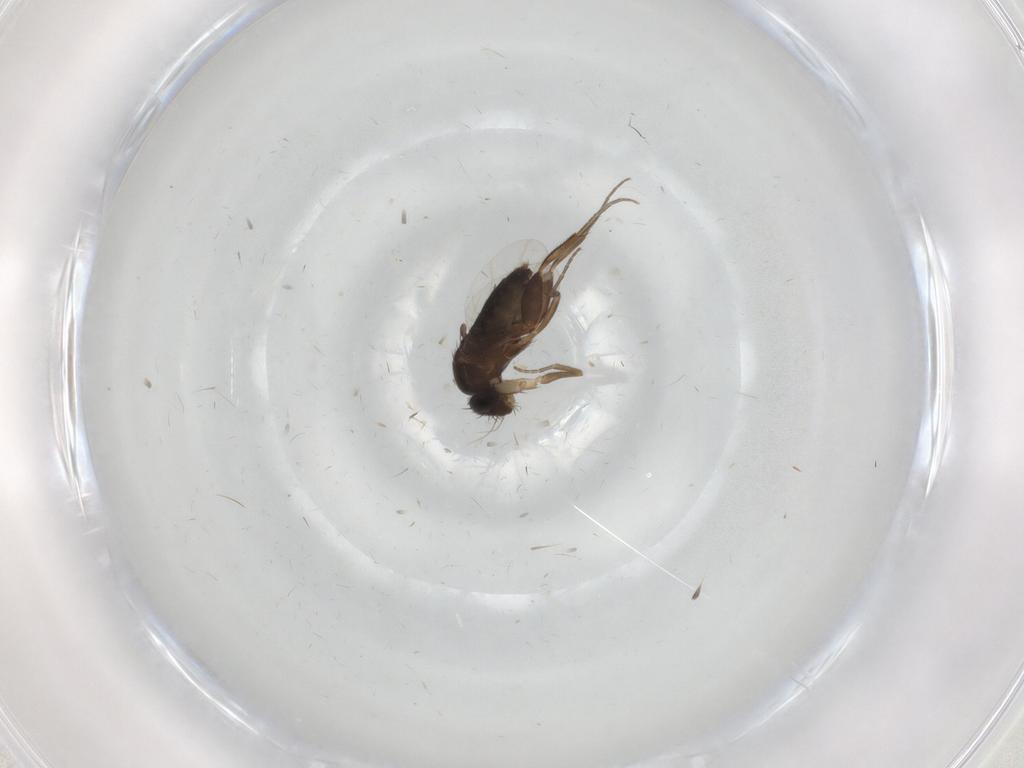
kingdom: Animalia
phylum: Arthropoda
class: Insecta
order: Diptera
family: Phoridae
